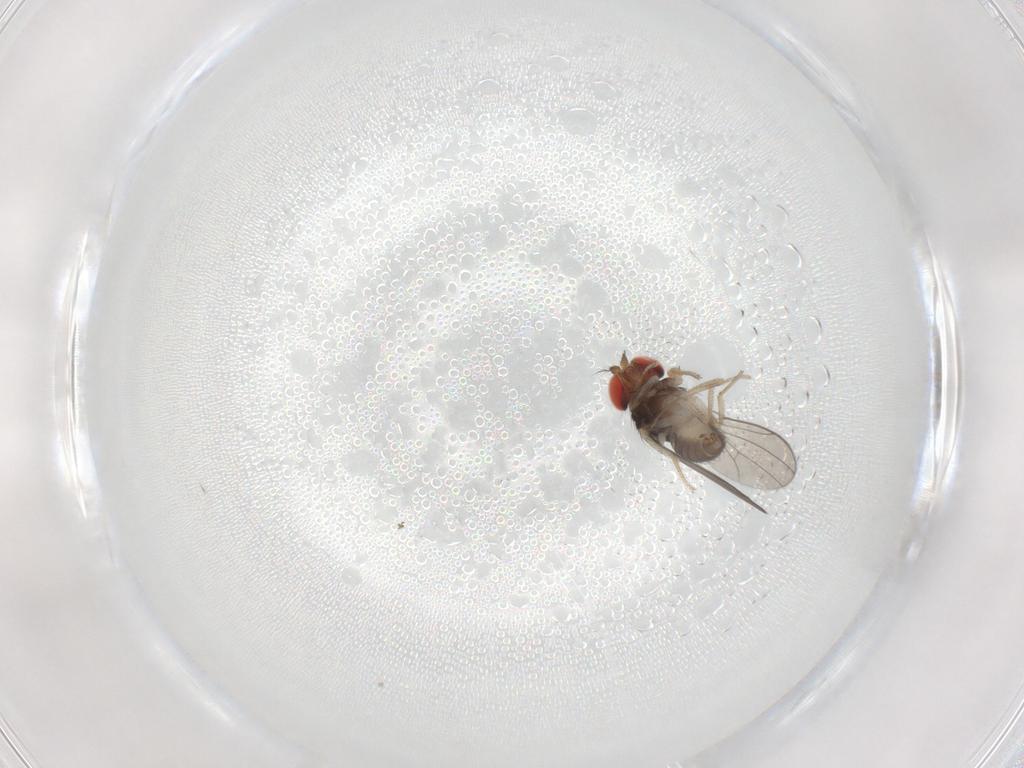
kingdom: Animalia
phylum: Arthropoda
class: Insecta
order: Diptera
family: Drosophilidae
